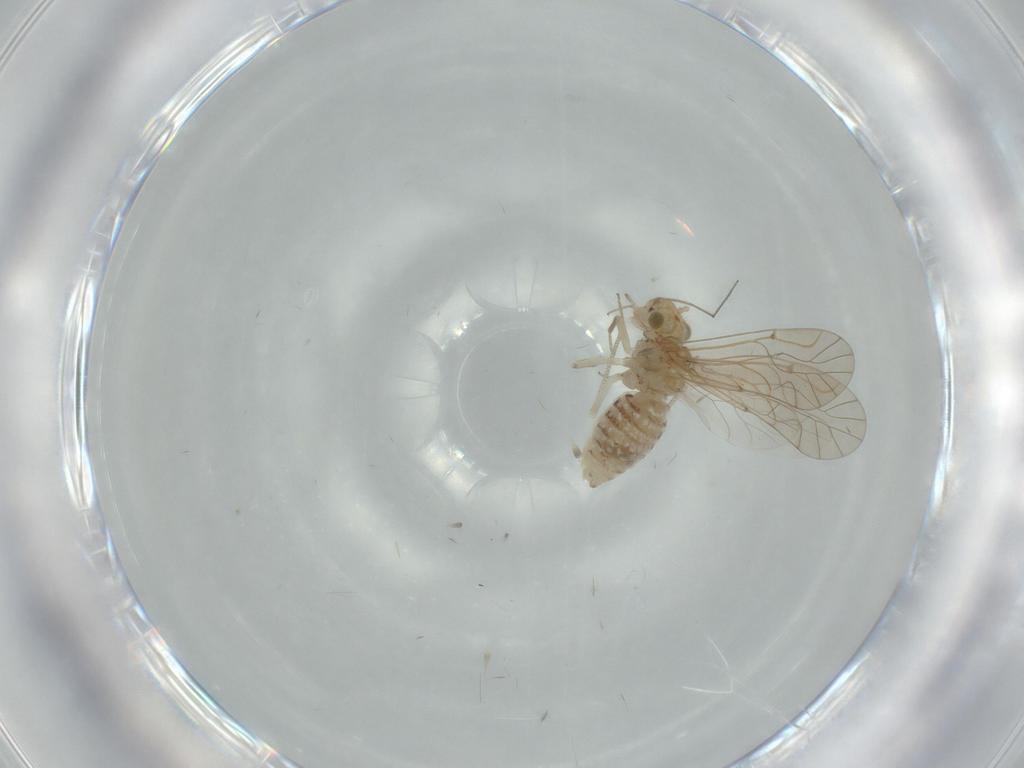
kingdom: Animalia
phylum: Arthropoda
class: Insecta
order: Psocodea
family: Lachesillidae
